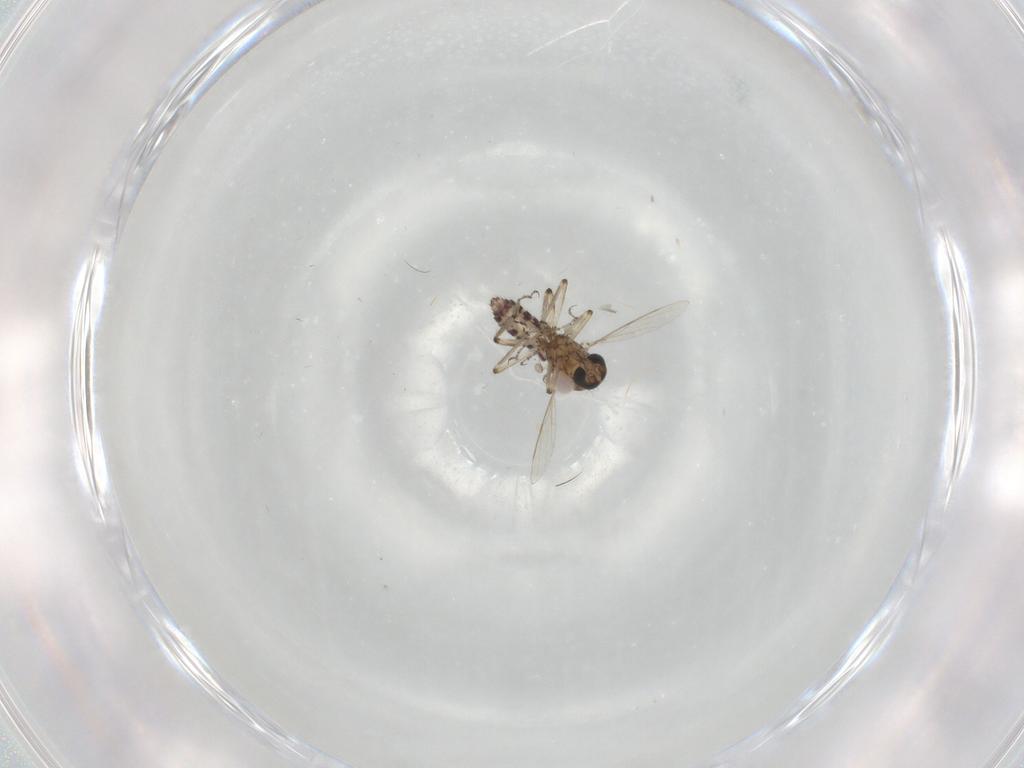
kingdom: Animalia
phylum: Arthropoda
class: Insecta
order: Diptera
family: Ceratopogonidae
